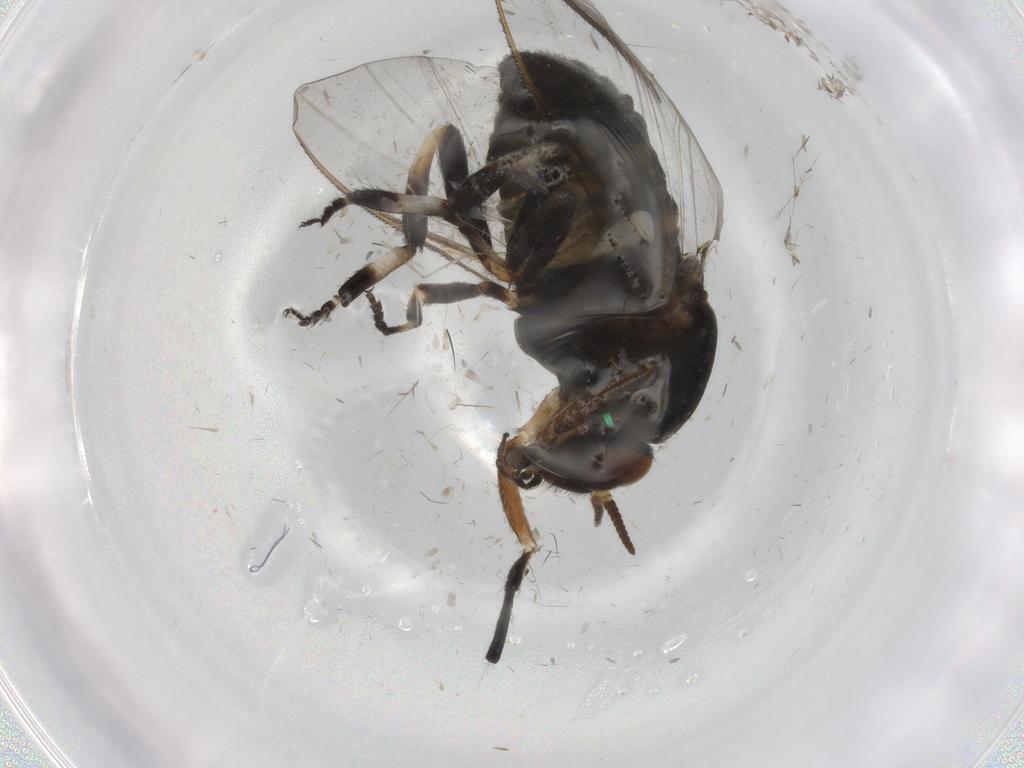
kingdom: Animalia
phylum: Arthropoda
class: Insecta
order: Diptera
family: Cecidomyiidae
